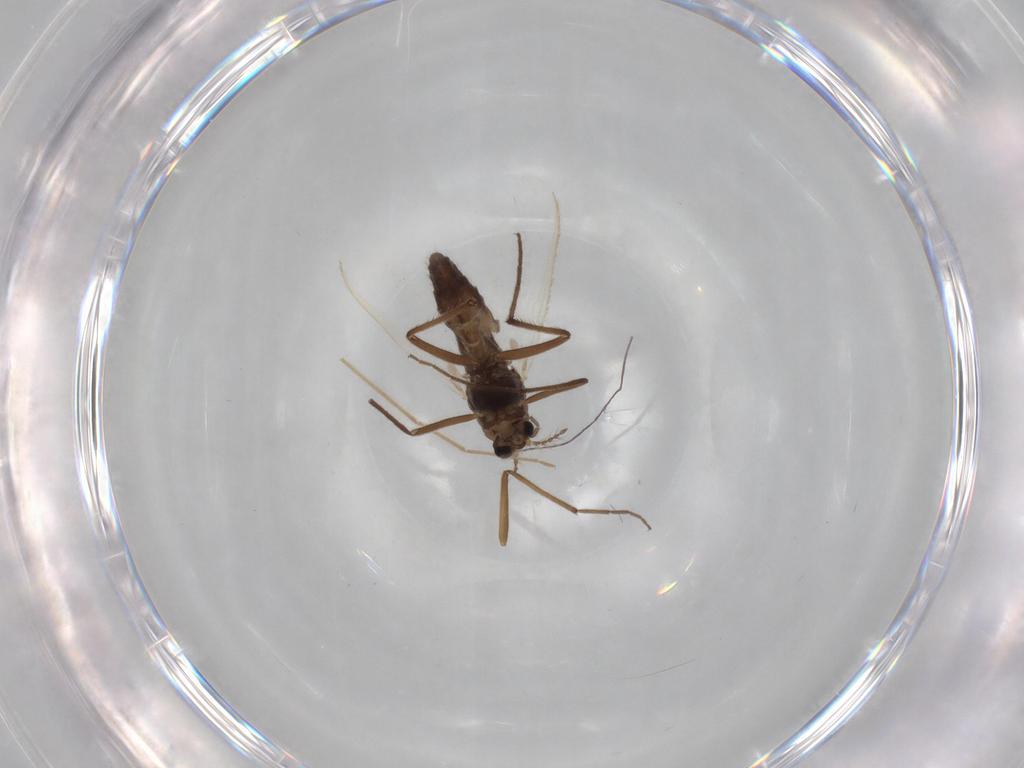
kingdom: Animalia
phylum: Arthropoda
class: Insecta
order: Diptera
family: Chironomidae
